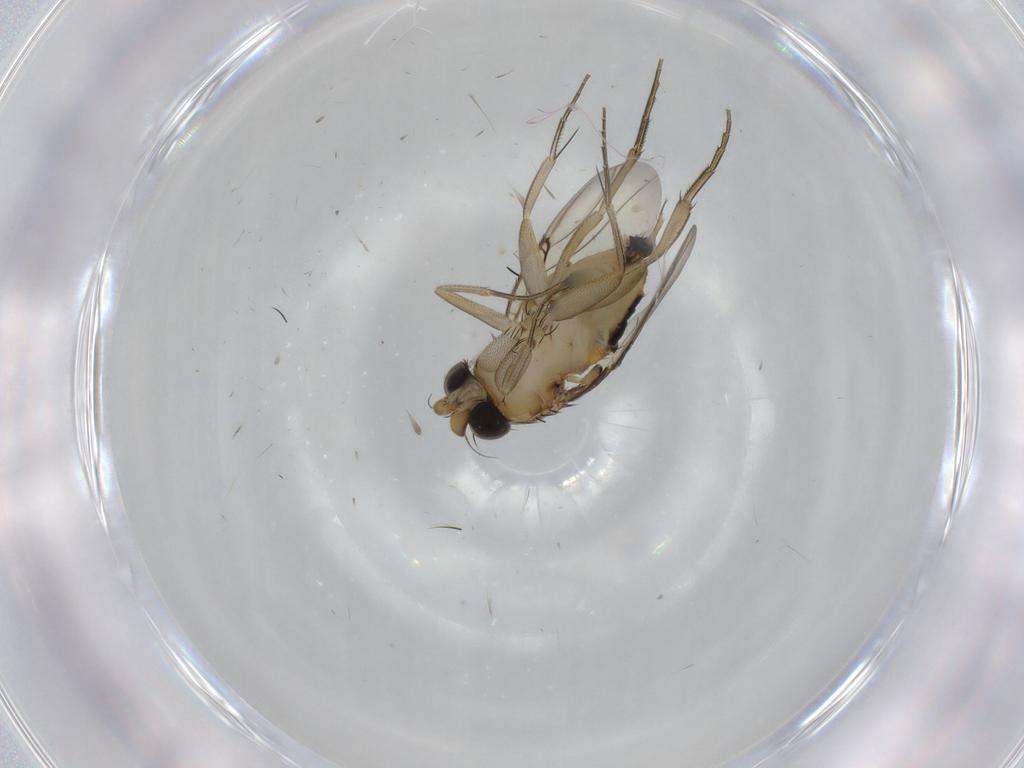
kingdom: Animalia
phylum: Arthropoda
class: Insecta
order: Diptera
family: Phoridae
